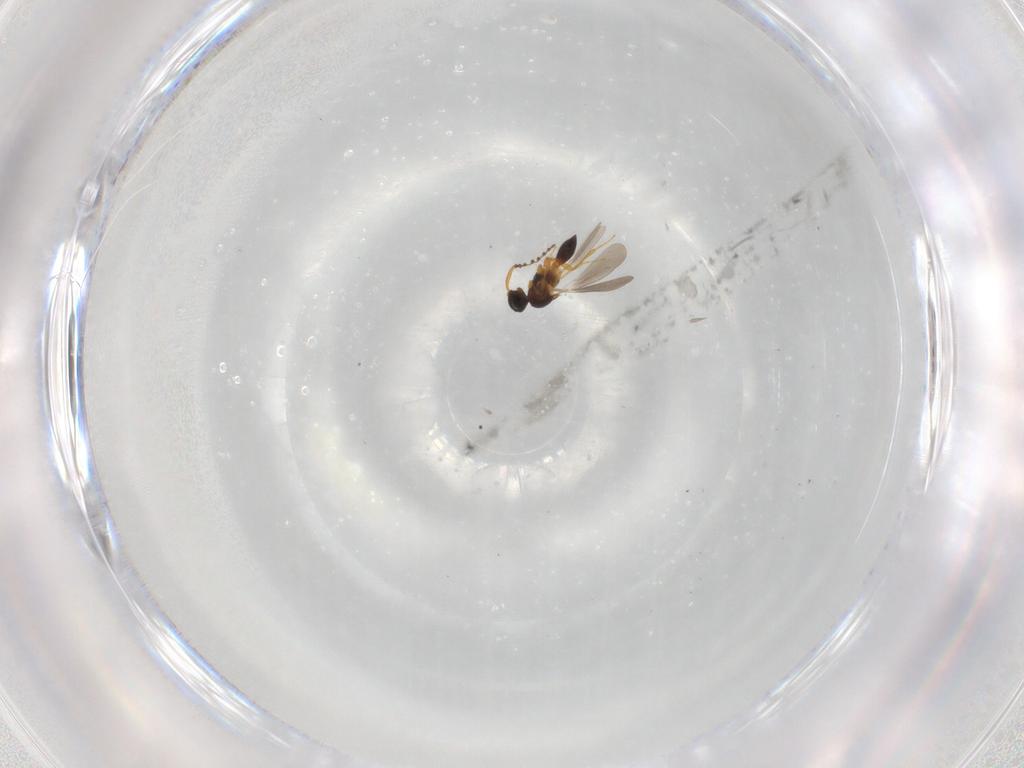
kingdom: Animalia
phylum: Arthropoda
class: Insecta
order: Hymenoptera
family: Platygastridae
